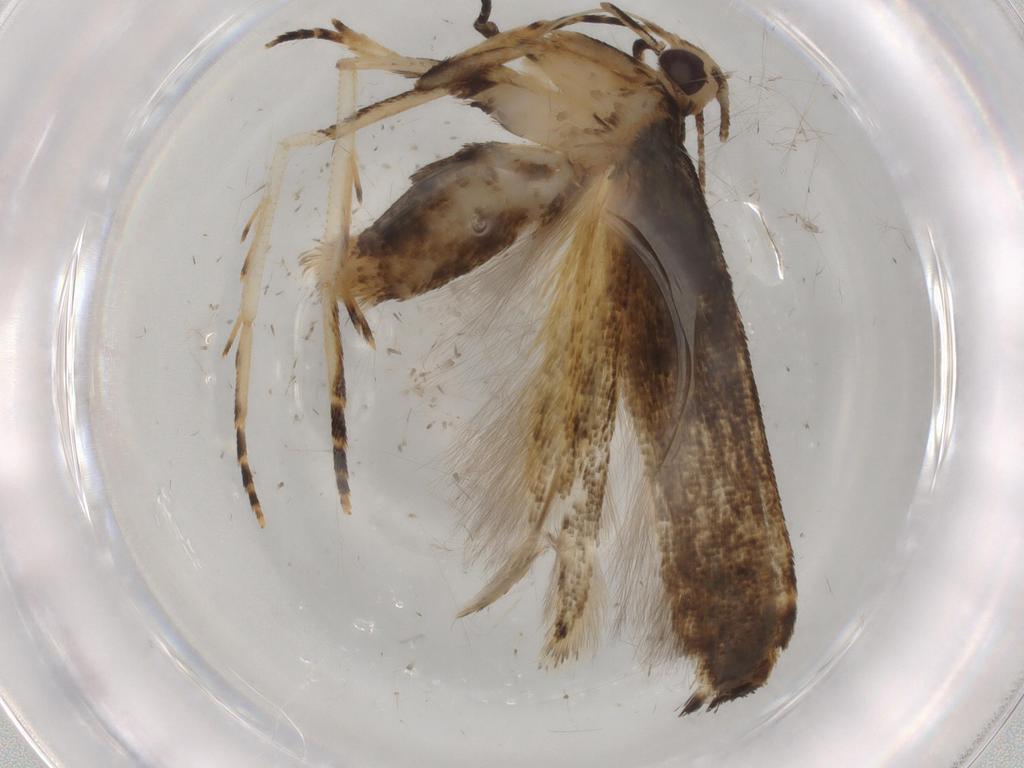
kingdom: Animalia
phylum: Arthropoda
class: Insecta
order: Lepidoptera
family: Cosmopterigidae
